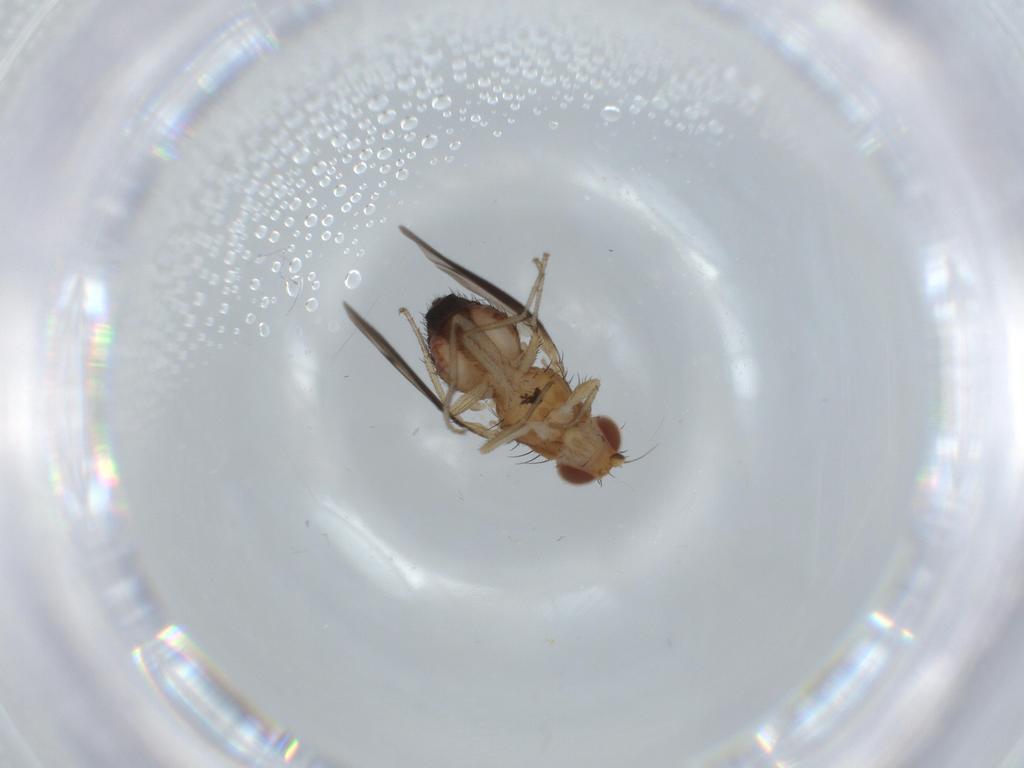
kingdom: Animalia
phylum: Arthropoda
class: Insecta
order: Diptera
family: Heleomyzidae
